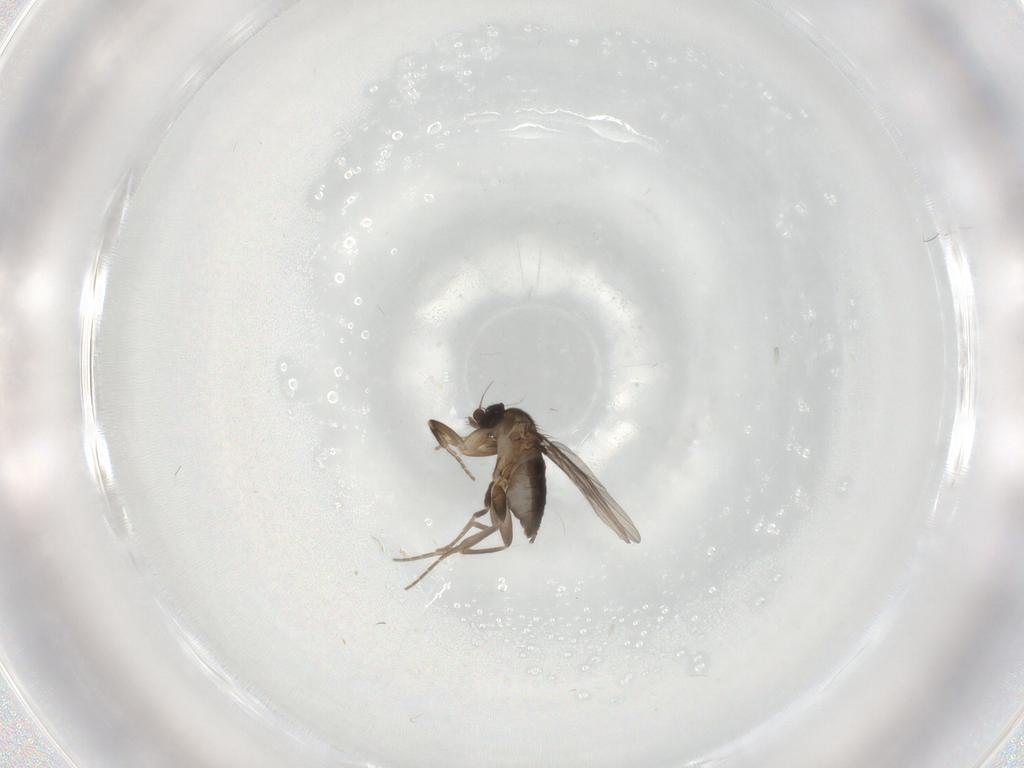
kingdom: Animalia
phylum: Arthropoda
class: Insecta
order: Diptera
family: Phoridae
